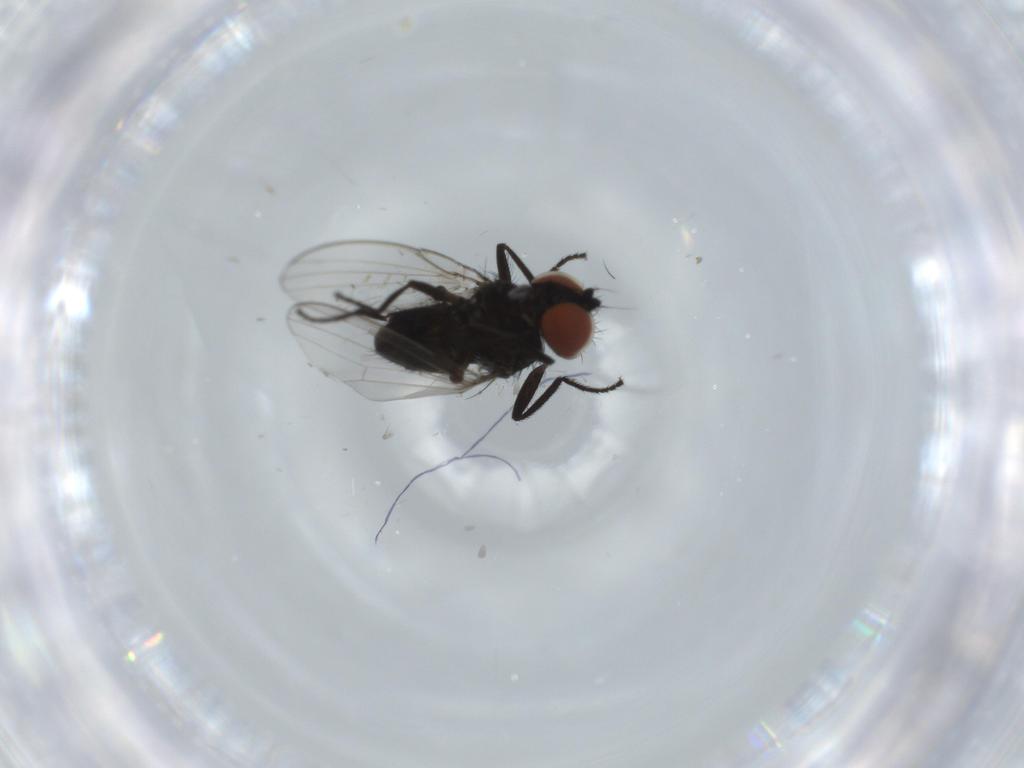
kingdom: Animalia
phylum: Arthropoda
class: Insecta
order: Diptera
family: Milichiidae
